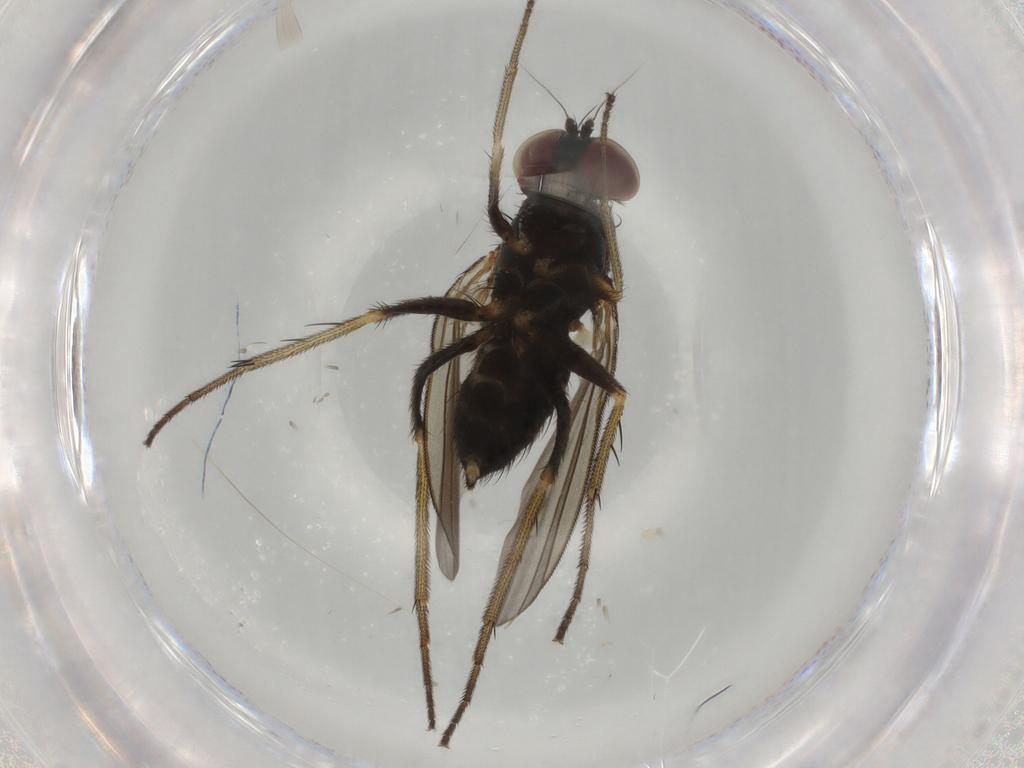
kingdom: Animalia
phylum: Arthropoda
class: Insecta
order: Diptera
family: Dolichopodidae
